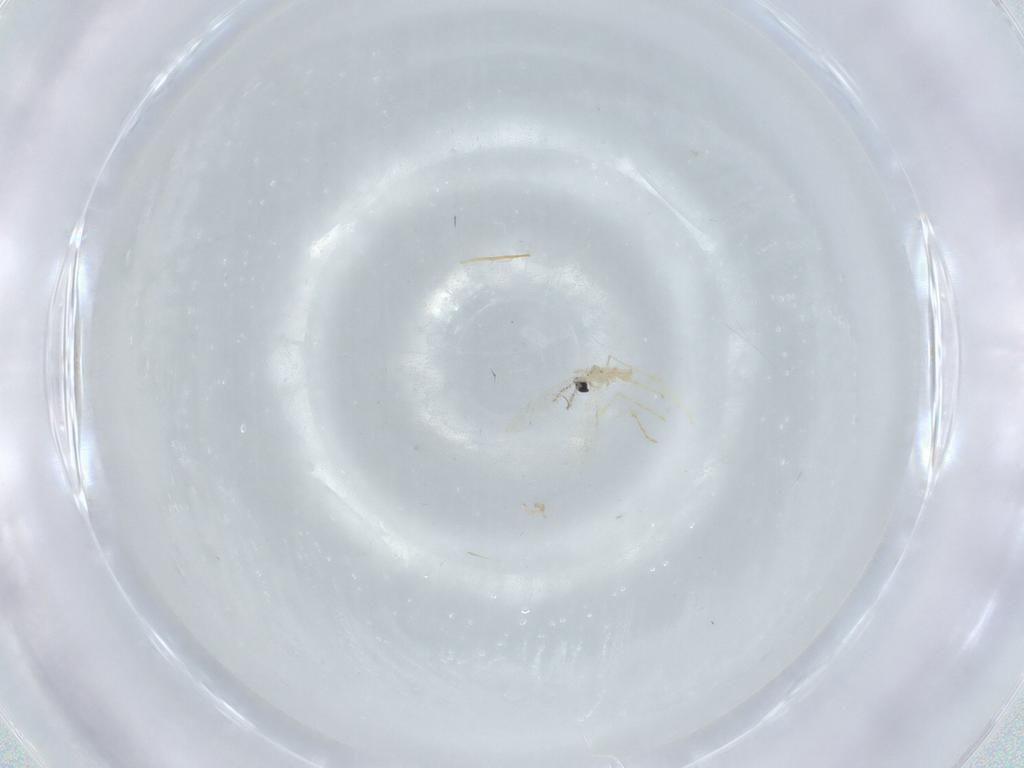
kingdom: Animalia
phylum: Arthropoda
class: Insecta
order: Diptera
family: Cecidomyiidae
